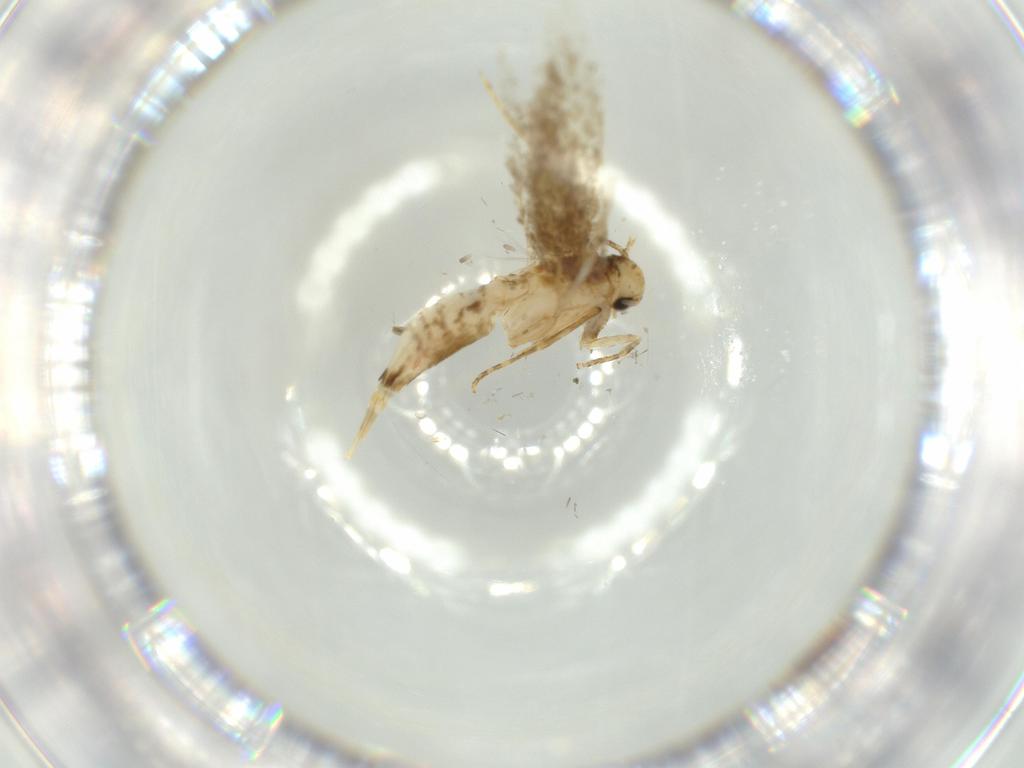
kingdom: Animalia
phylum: Arthropoda
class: Insecta
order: Lepidoptera
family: Tineidae
